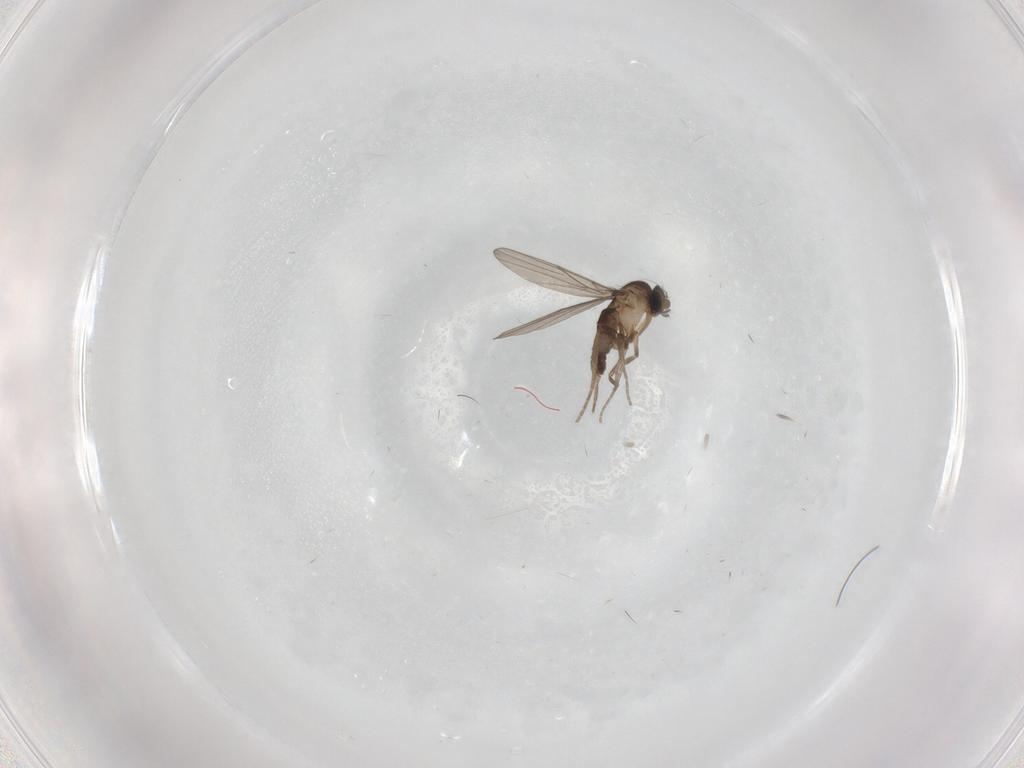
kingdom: Animalia
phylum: Arthropoda
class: Insecta
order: Diptera
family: Phoridae
